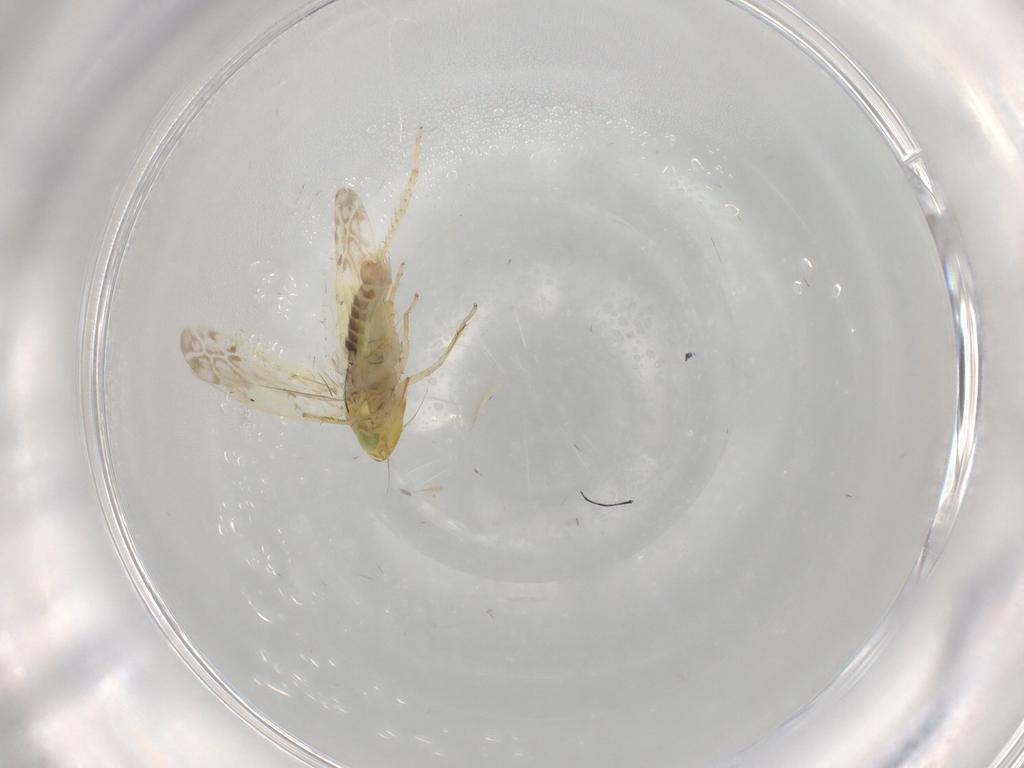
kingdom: Animalia
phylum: Arthropoda
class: Insecta
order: Hemiptera
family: Cicadellidae
